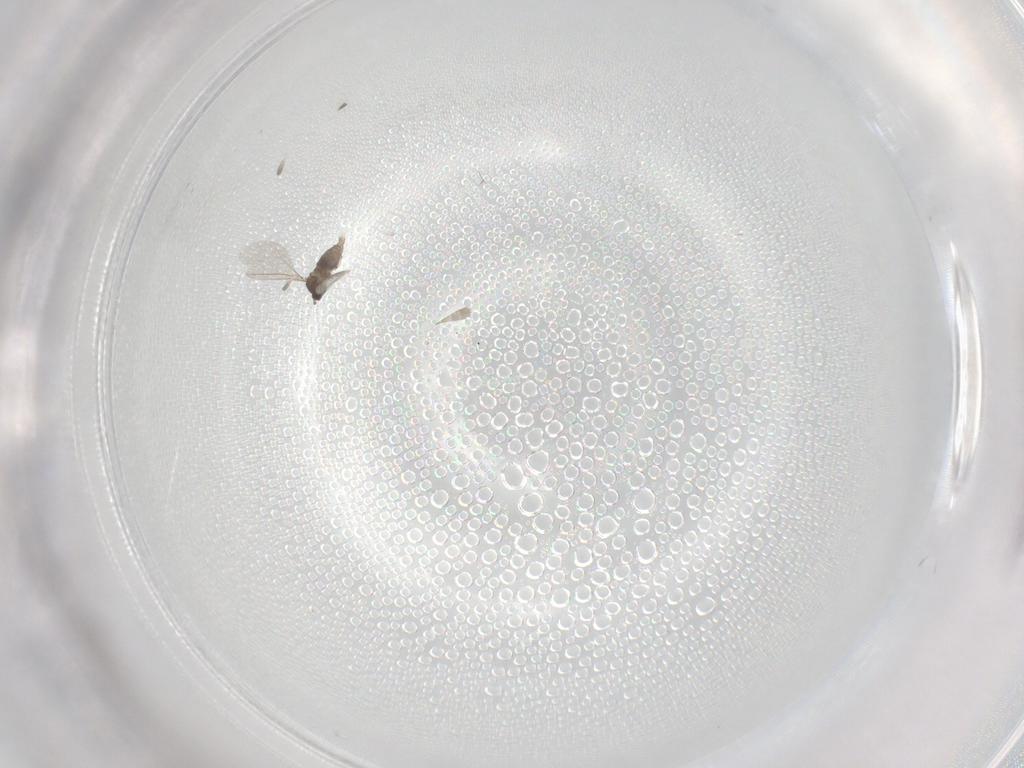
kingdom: Animalia
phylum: Arthropoda
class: Insecta
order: Diptera
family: Cecidomyiidae
